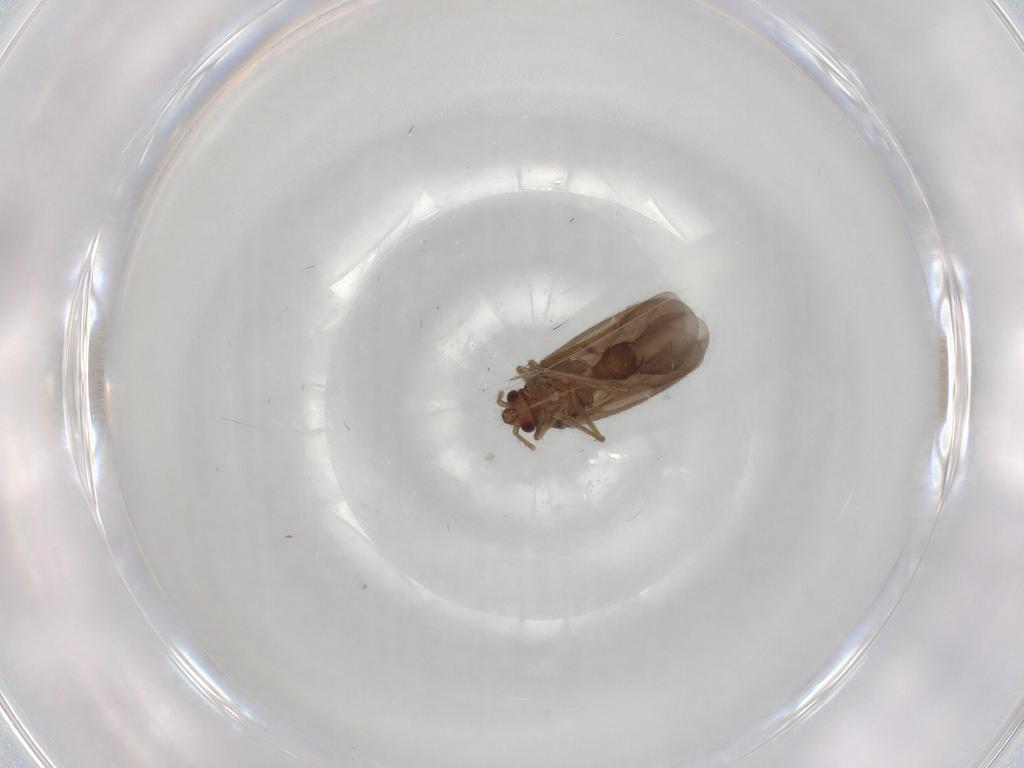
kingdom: Animalia
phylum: Arthropoda
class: Insecta
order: Hemiptera
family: Ceratocombidae
